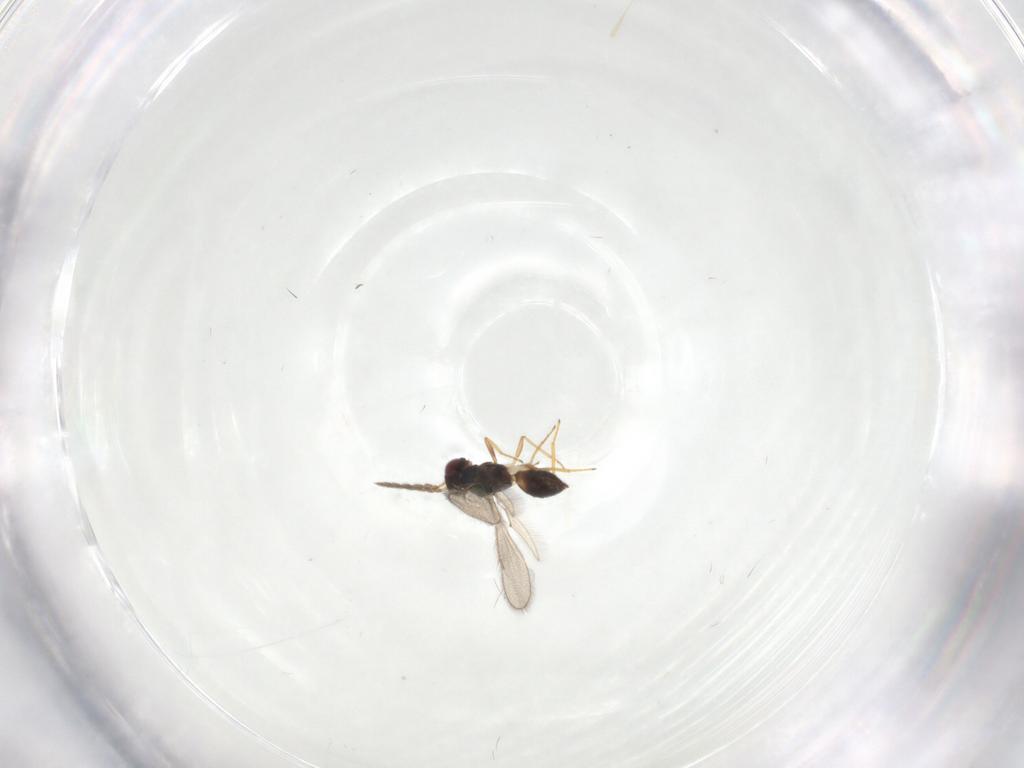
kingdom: Animalia
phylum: Arthropoda
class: Insecta
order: Hymenoptera
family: Eulophidae
